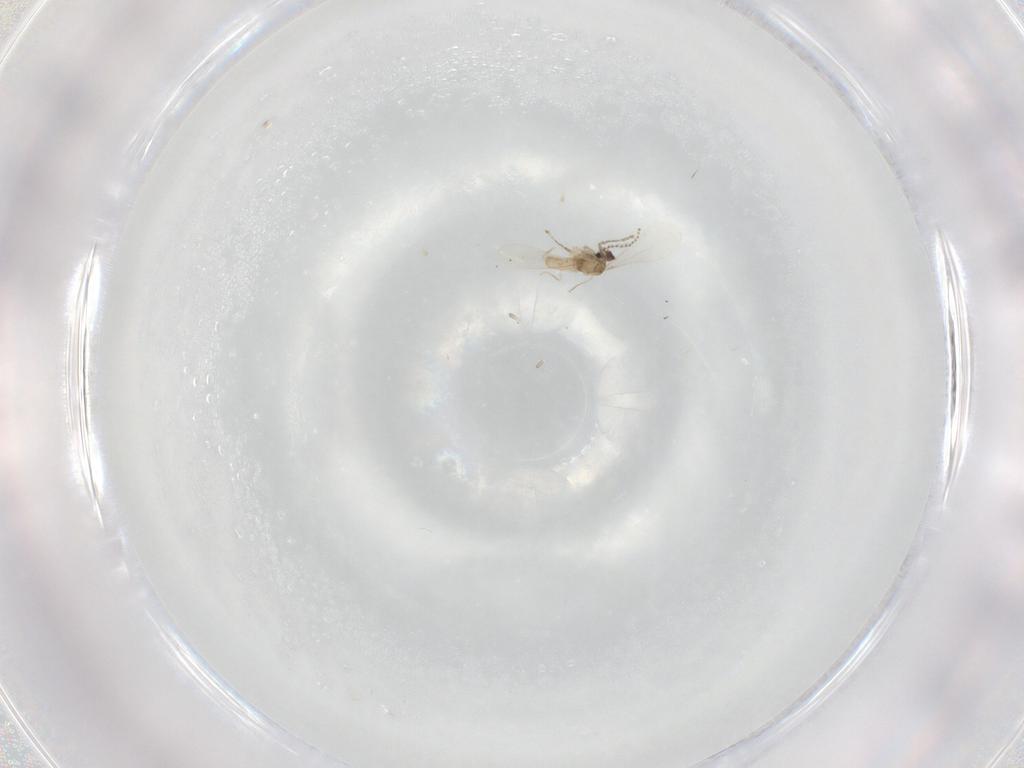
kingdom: Animalia
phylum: Arthropoda
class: Insecta
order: Diptera
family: Cecidomyiidae
